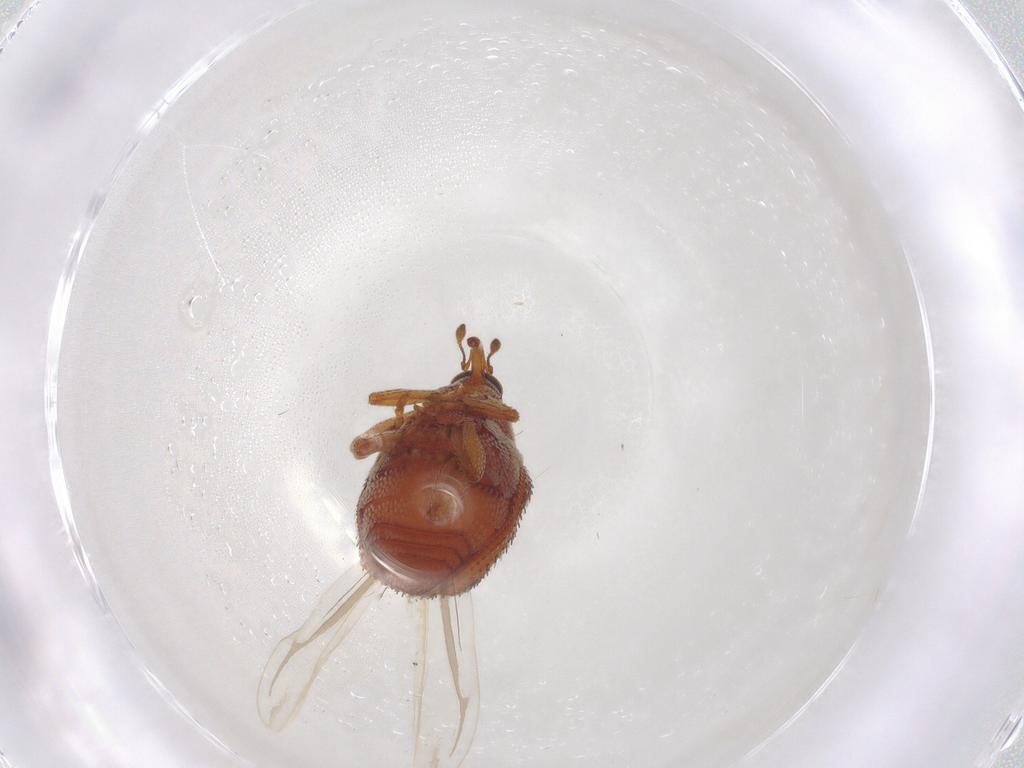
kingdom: Animalia
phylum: Arthropoda
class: Insecta
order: Coleoptera
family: Curculionidae
